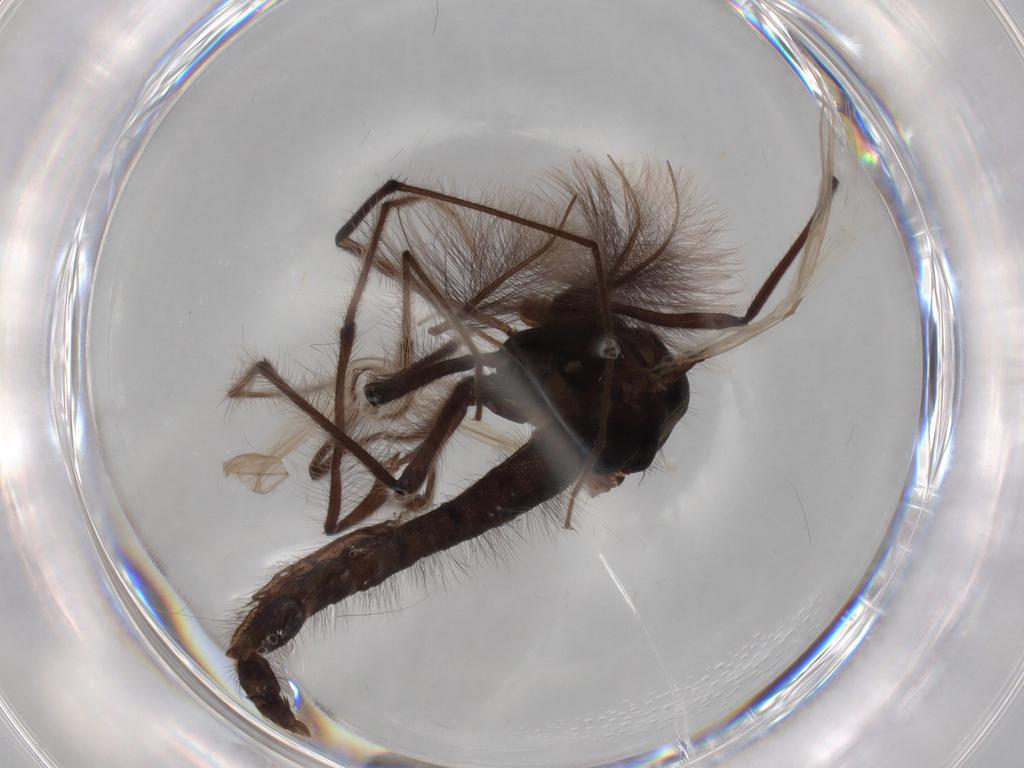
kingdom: Animalia
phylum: Arthropoda
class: Insecta
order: Diptera
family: Chironomidae
